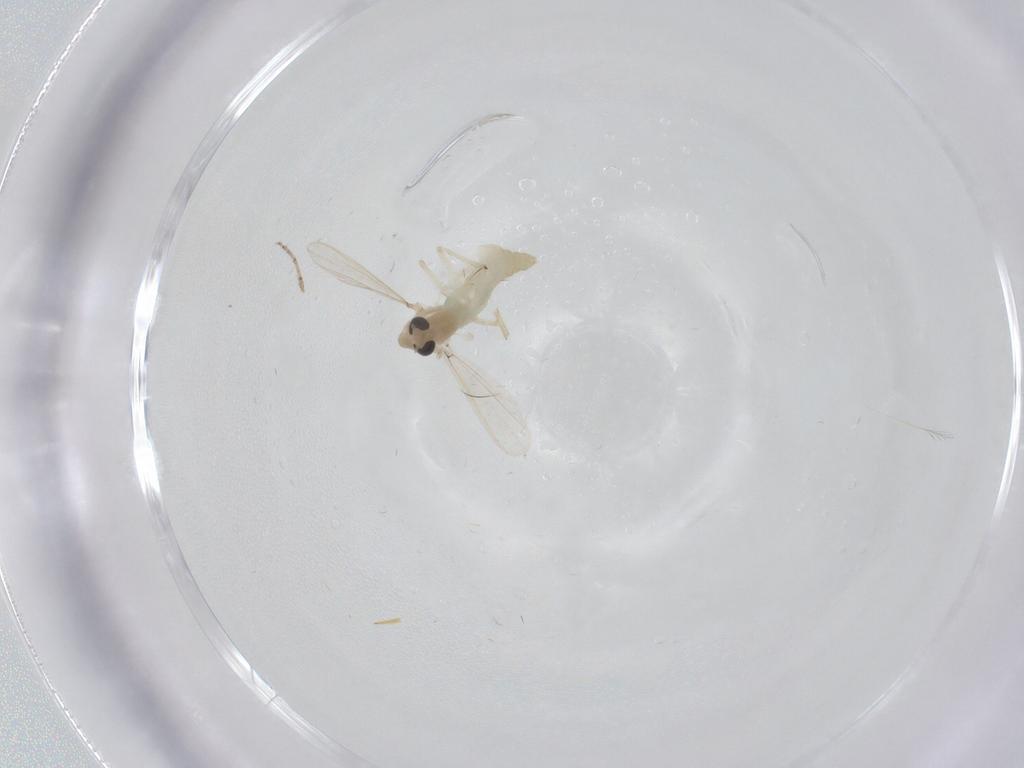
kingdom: Animalia
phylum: Arthropoda
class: Insecta
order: Diptera
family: Chironomidae
